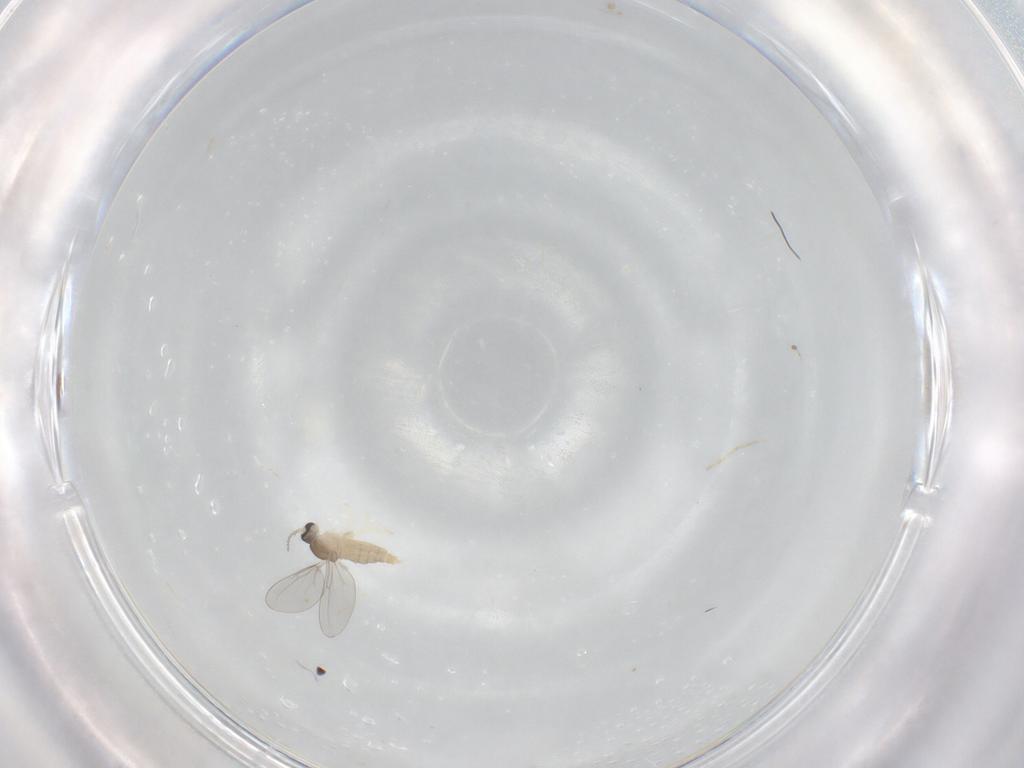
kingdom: Animalia
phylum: Arthropoda
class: Insecta
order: Diptera
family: Cecidomyiidae
